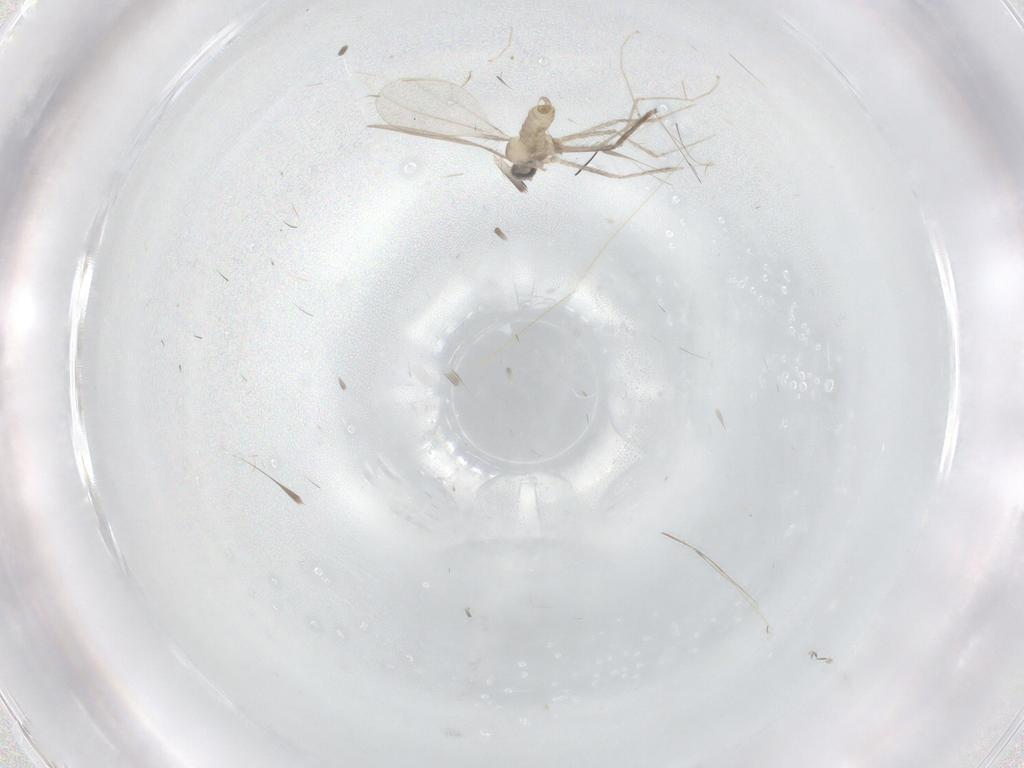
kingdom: Animalia
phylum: Arthropoda
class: Insecta
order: Diptera
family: Cecidomyiidae
